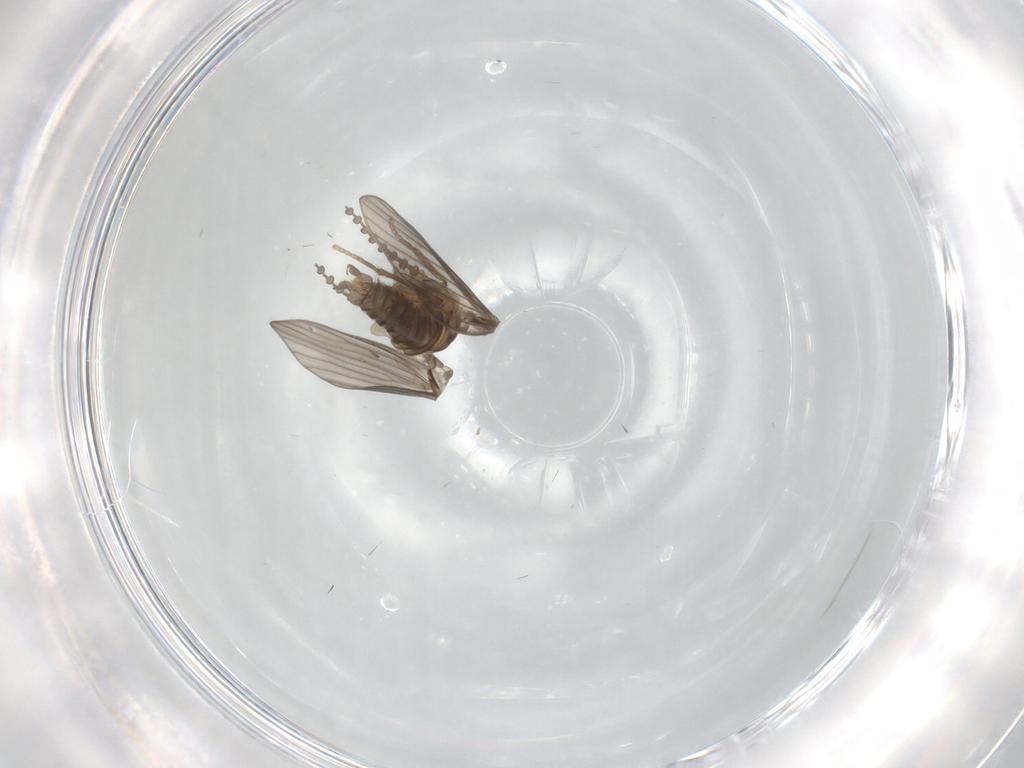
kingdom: Animalia
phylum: Arthropoda
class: Insecta
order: Diptera
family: Psychodidae
